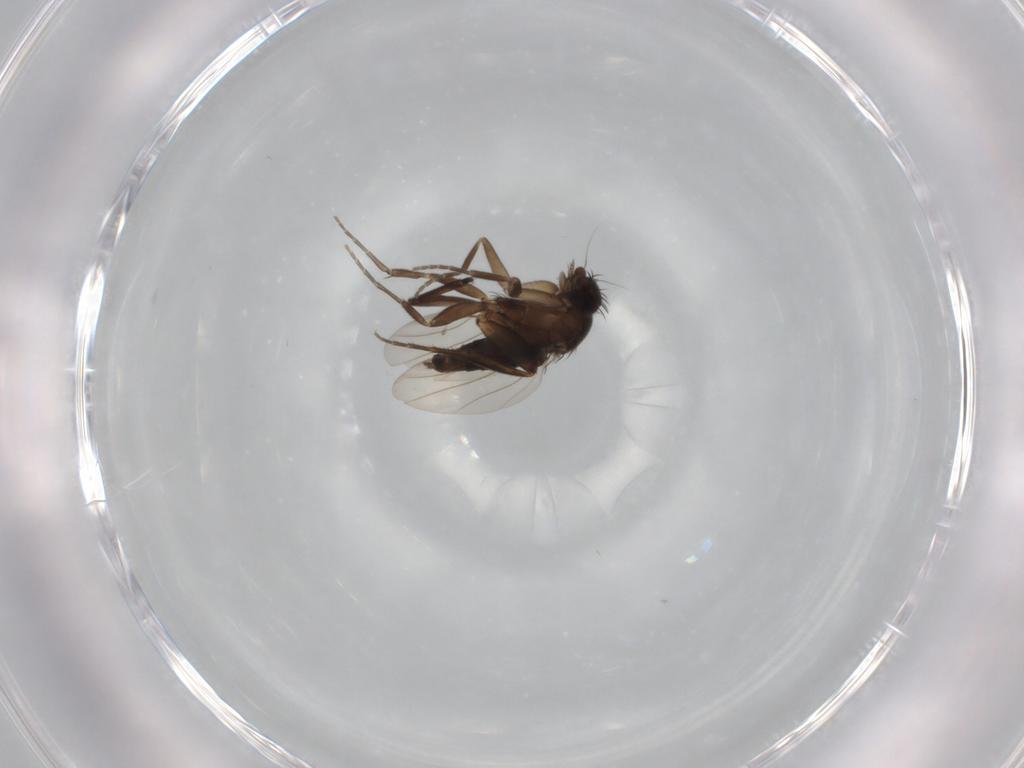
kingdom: Animalia
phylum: Arthropoda
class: Insecta
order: Diptera
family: Phoridae
